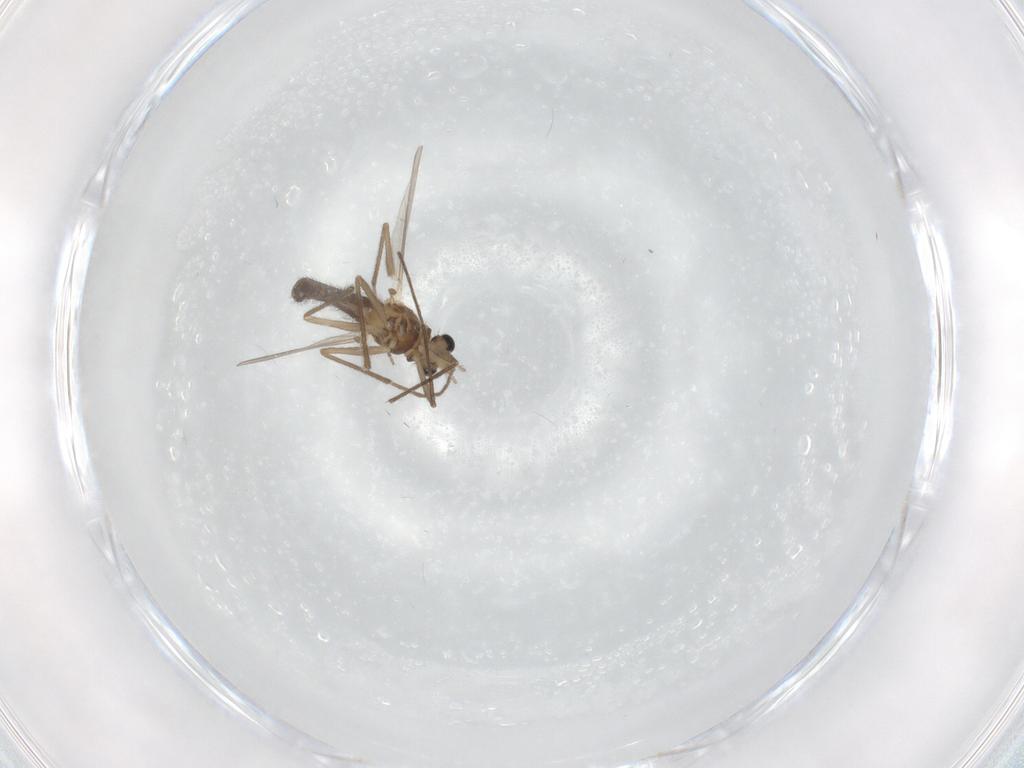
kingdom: Animalia
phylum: Arthropoda
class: Insecta
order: Diptera
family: Chironomidae
